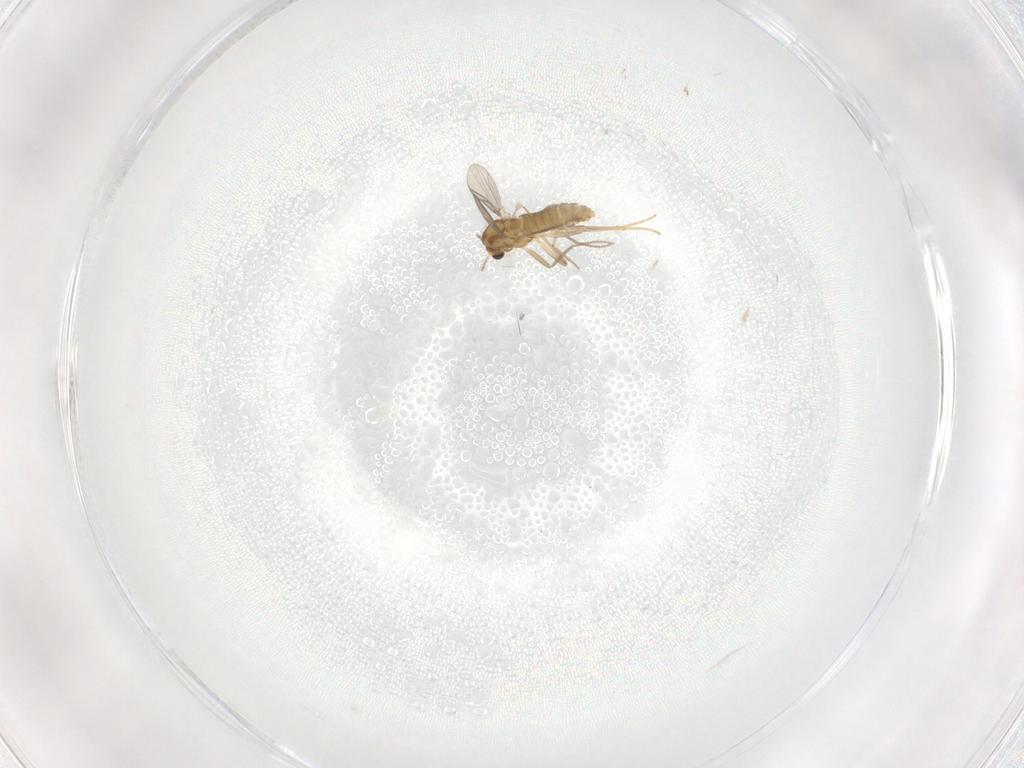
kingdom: Animalia
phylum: Arthropoda
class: Insecta
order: Diptera
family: Chironomidae
